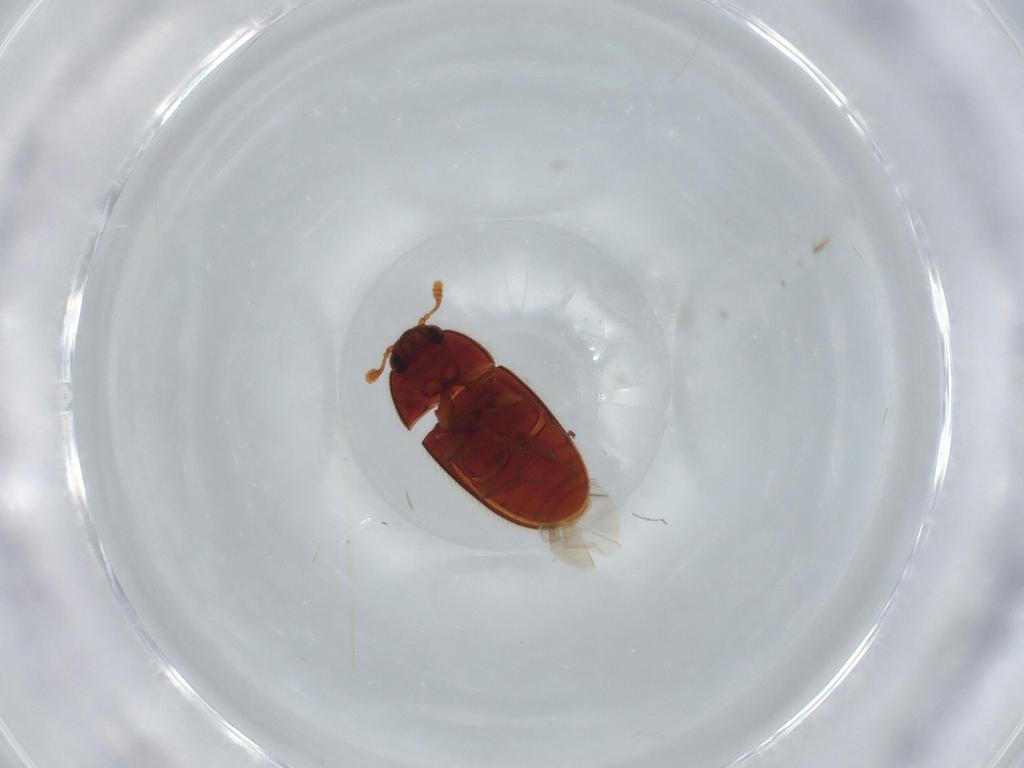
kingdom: Animalia
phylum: Arthropoda
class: Insecta
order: Coleoptera
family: Biphyllidae
